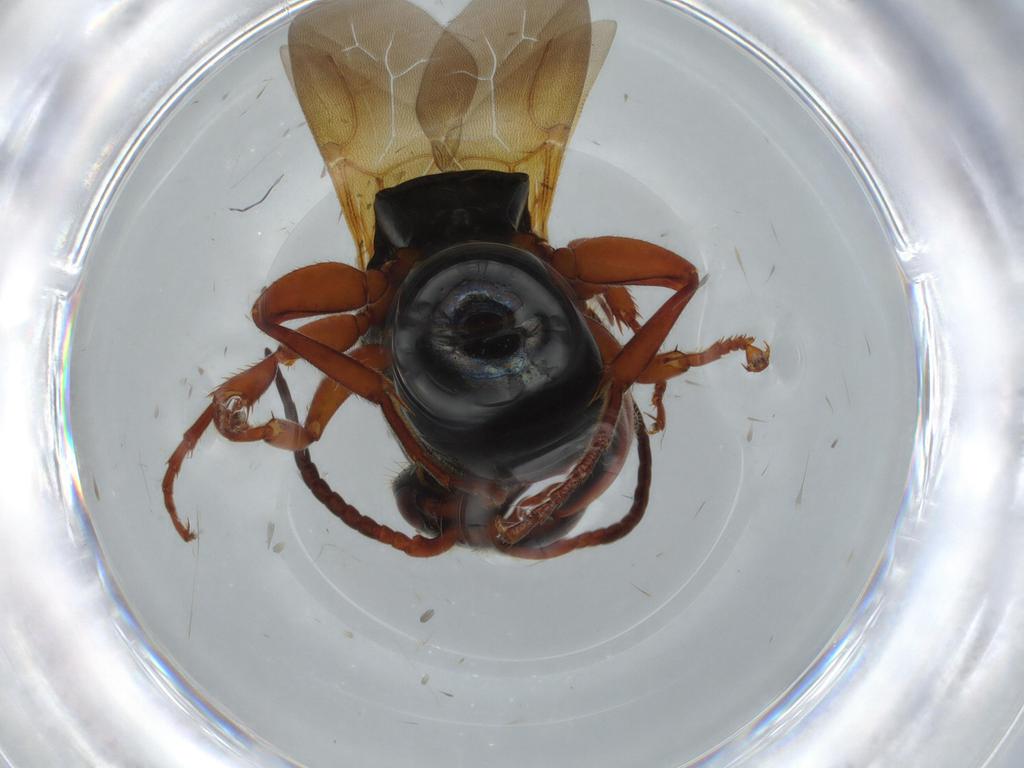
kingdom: Animalia
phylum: Arthropoda
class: Insecta
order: Hymenoptera
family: Bethylidae
